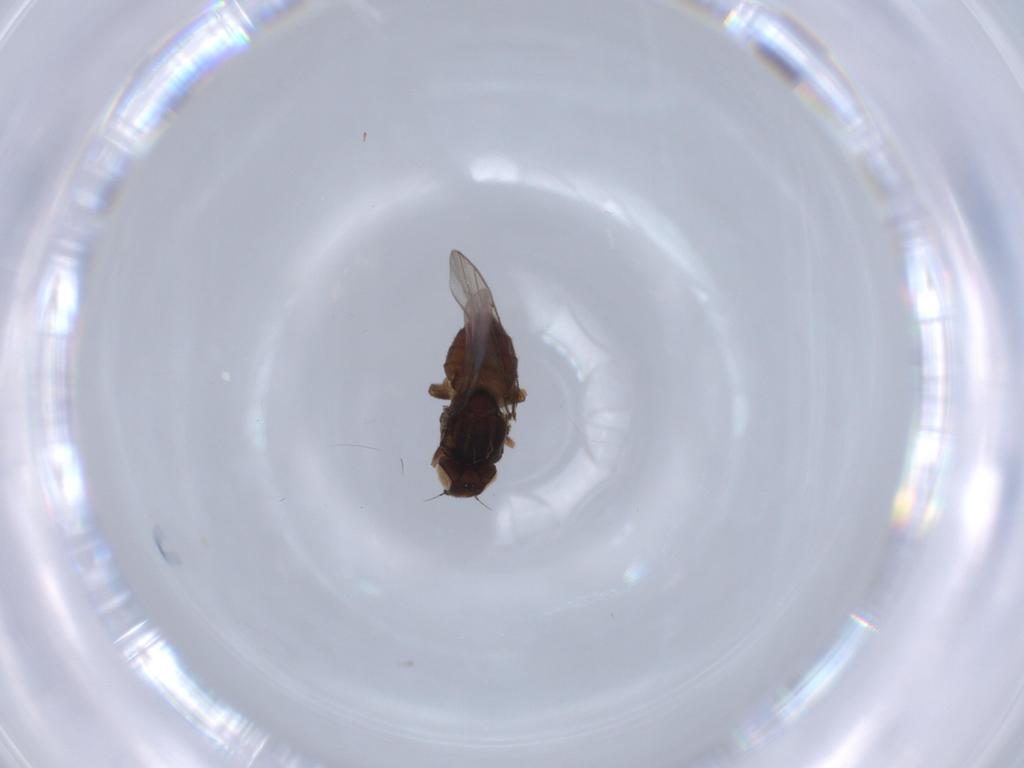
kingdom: Animalia
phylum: Arthropoda
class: Insecta
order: Diptera
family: Chloropidae
